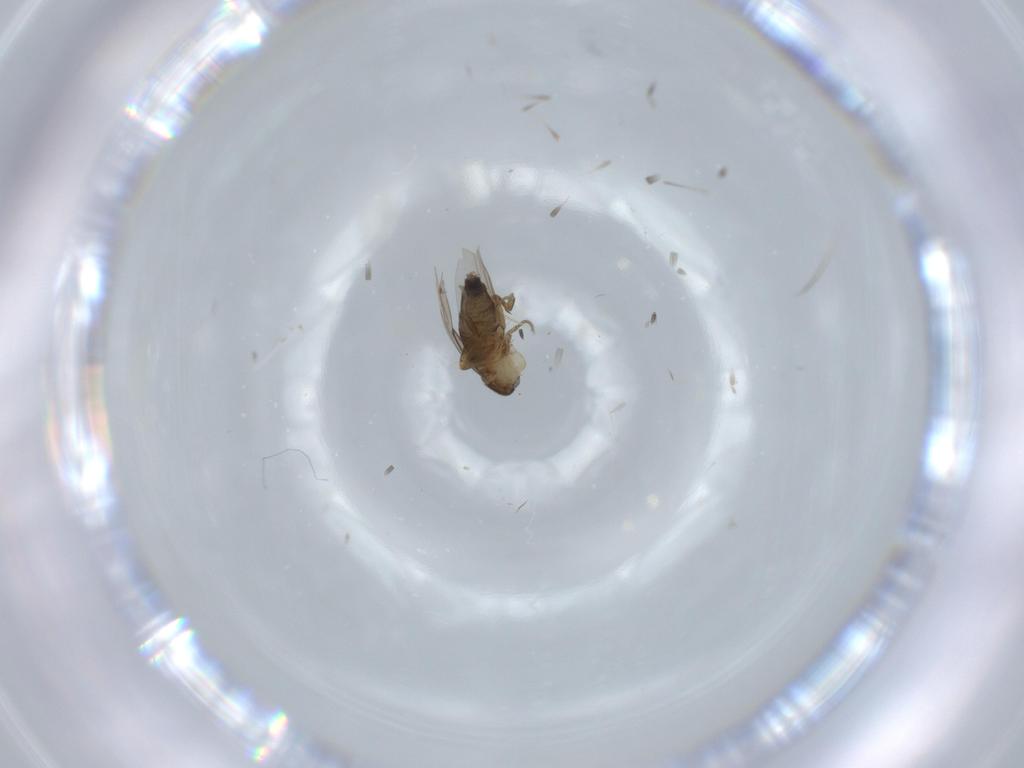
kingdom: Animalia
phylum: Arthropoda
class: Insecta
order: Diptera
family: Phoridae
